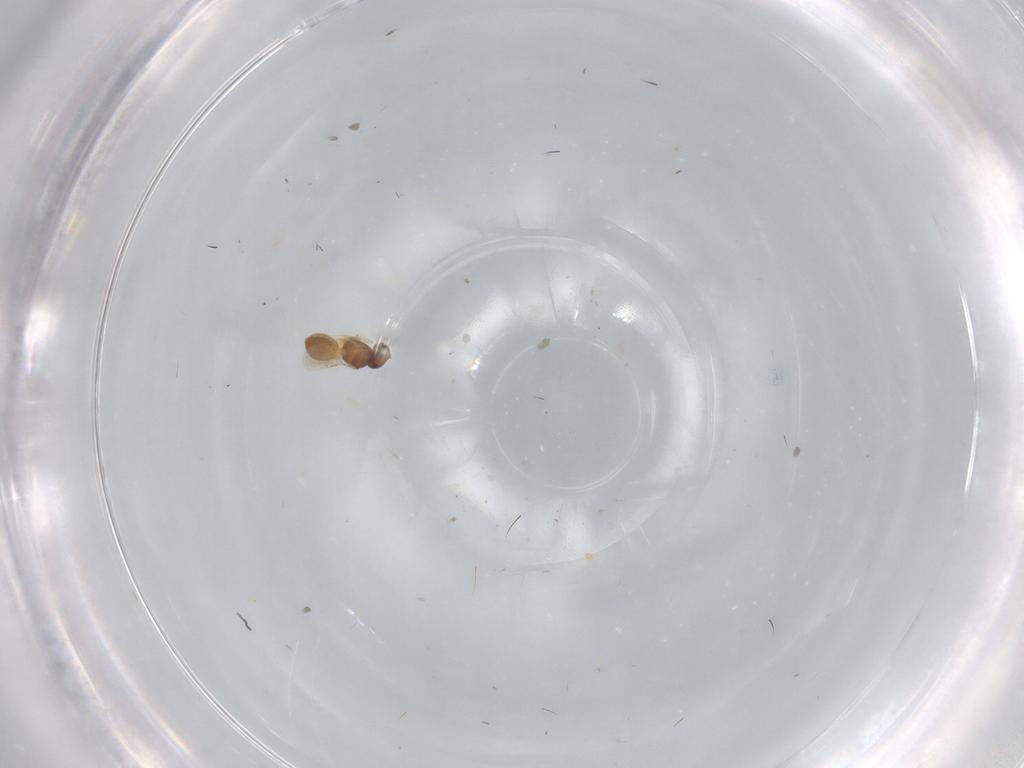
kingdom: Animalia
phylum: Arthropoda
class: Insecta
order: Hymenoptera
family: Scelionidae
